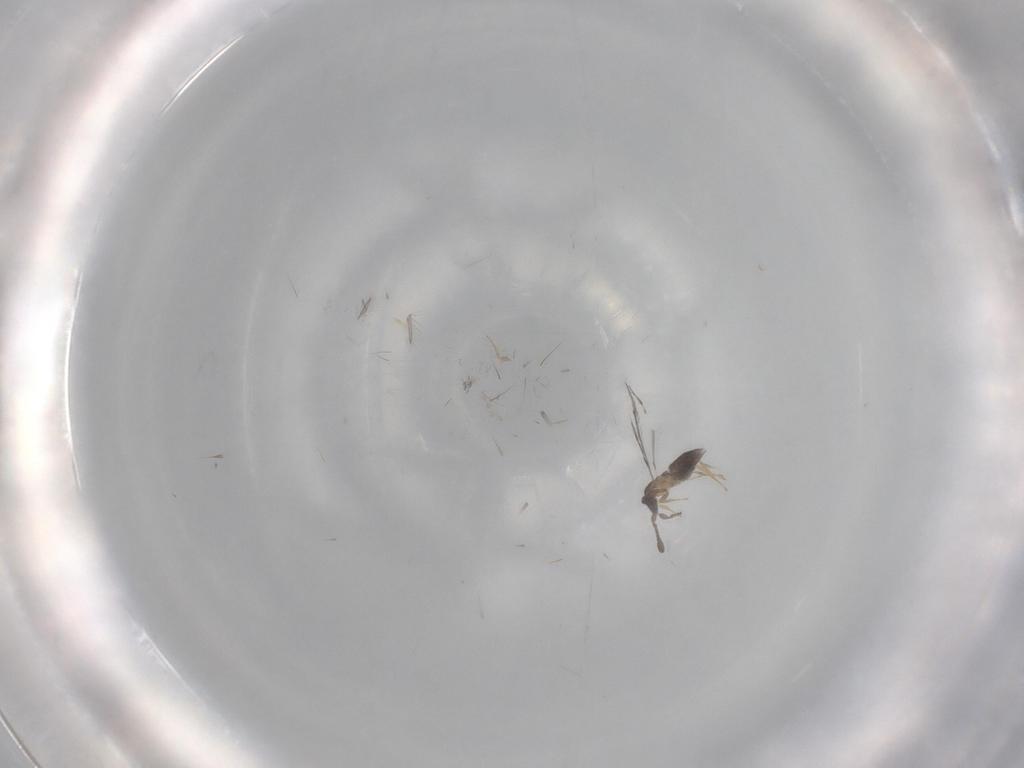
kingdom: Animalia
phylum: Arthropoda
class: Insecta
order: Hymenoptera
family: Mymaridae
